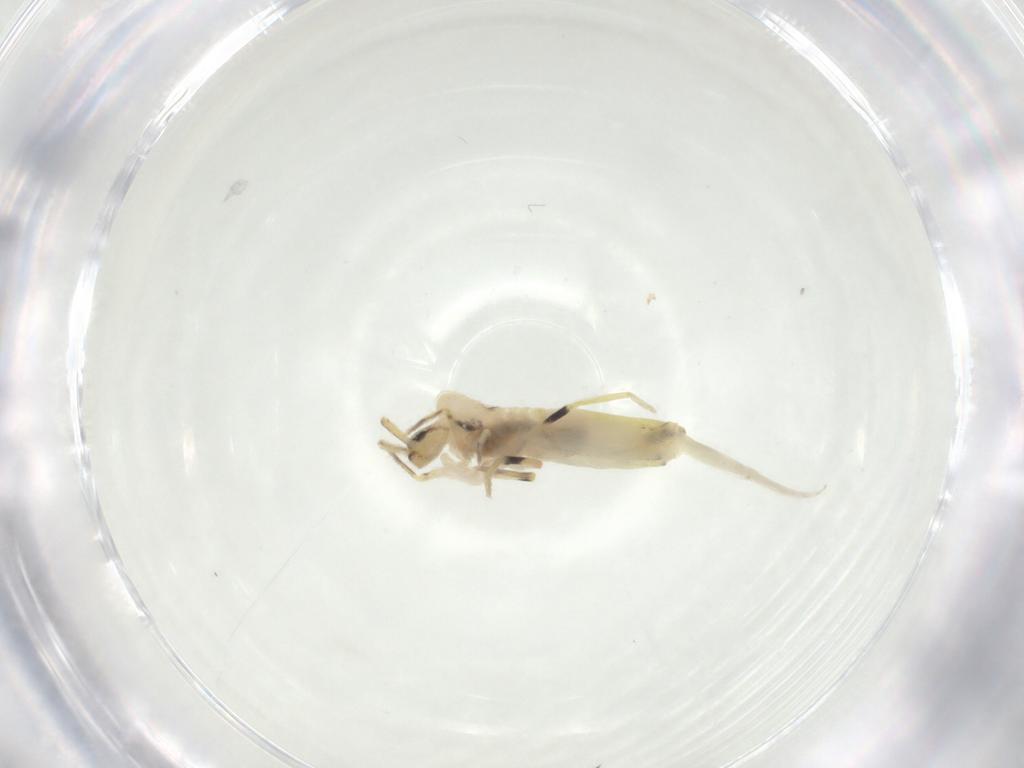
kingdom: Animalia
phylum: Arthropoda
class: Collembola
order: Entomobryomorpha
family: Entomobryidae
